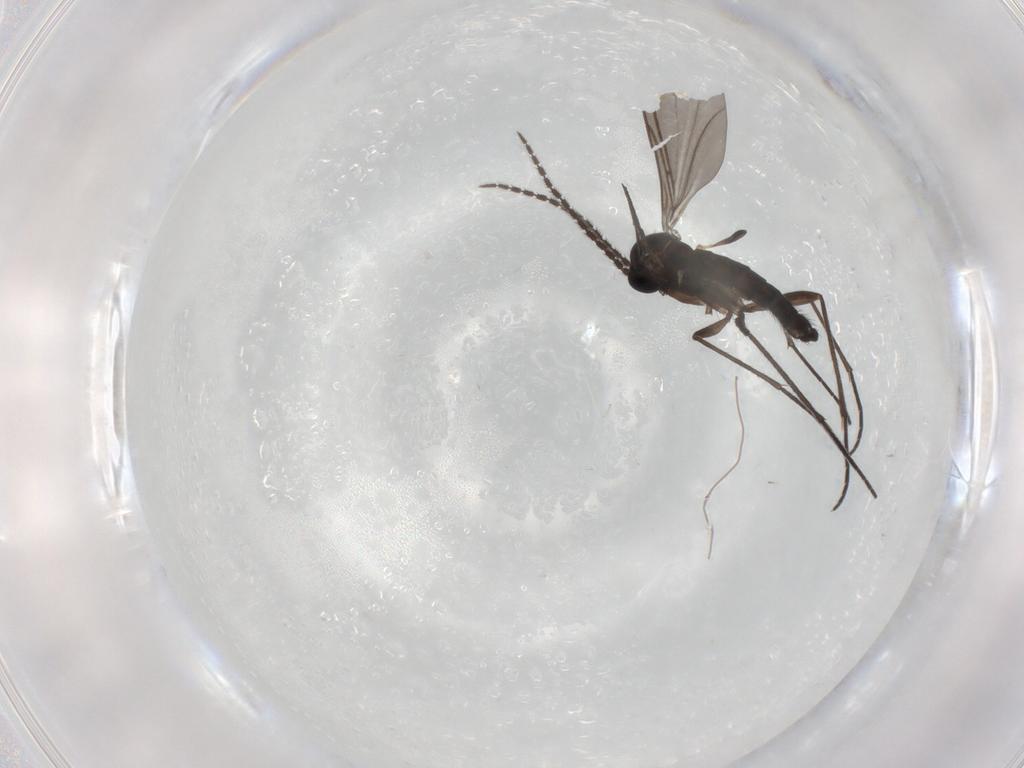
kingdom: Animalia
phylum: Arthropoda
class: Insecta
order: Diptera
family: Sciaridae
